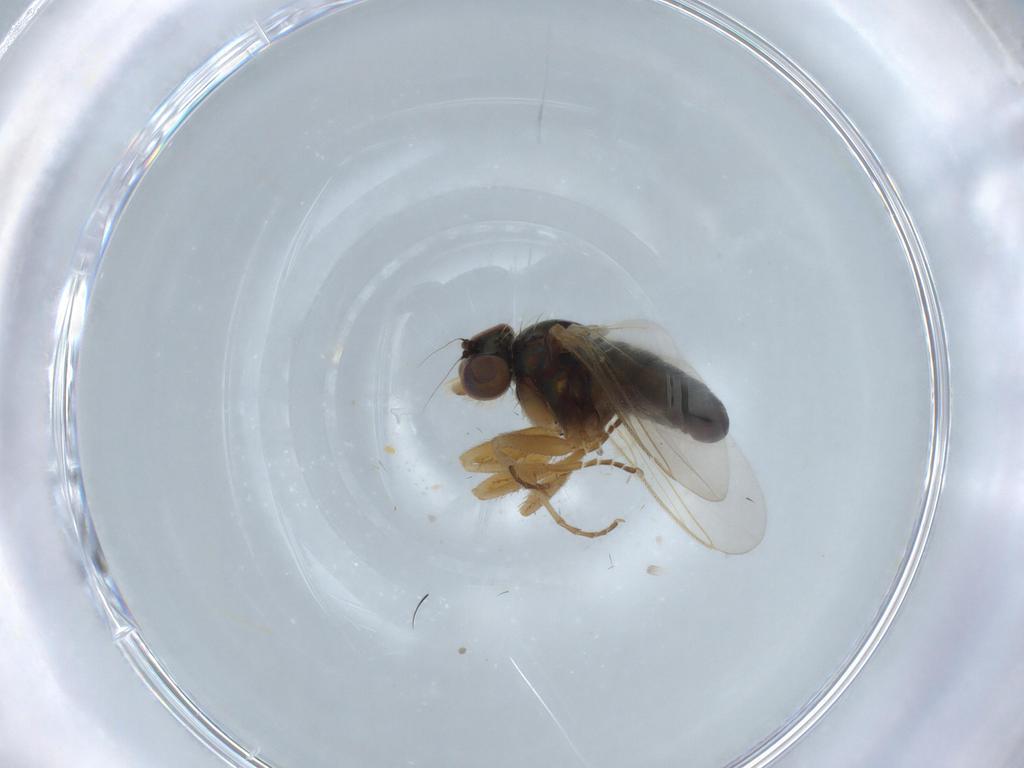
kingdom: Animalia
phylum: Arthropoda
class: Insecta
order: Diptera
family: Dolichopodidae
